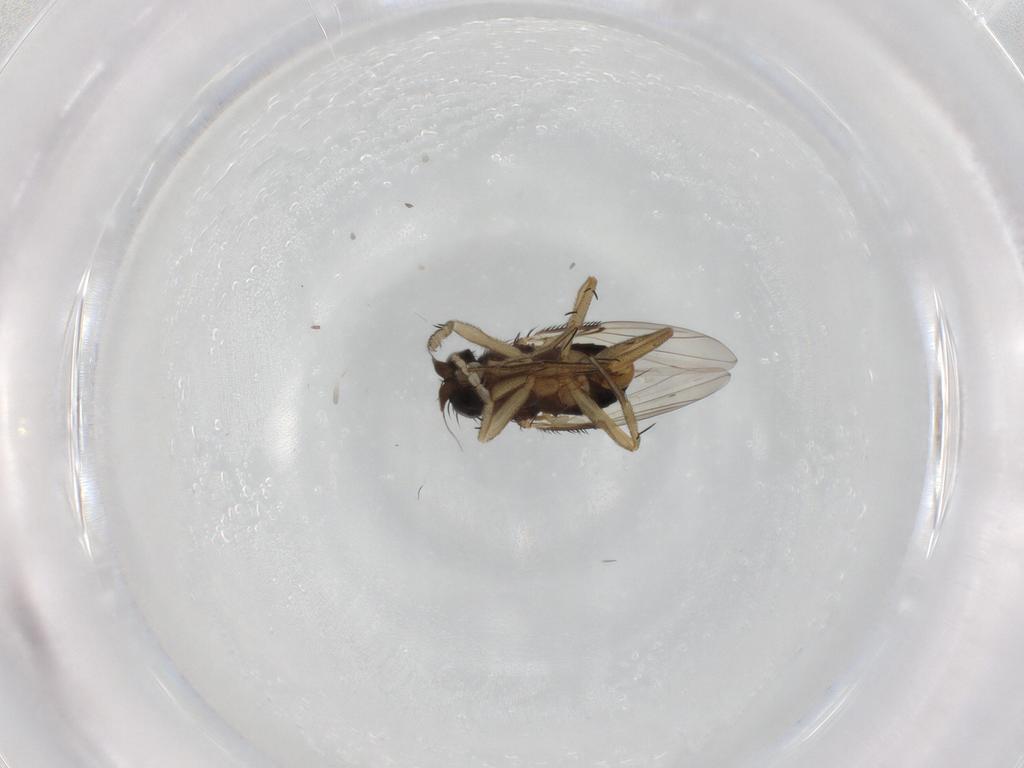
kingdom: Animalia
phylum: Arthropoda
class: Insecta
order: Diptera
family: Phoridae
